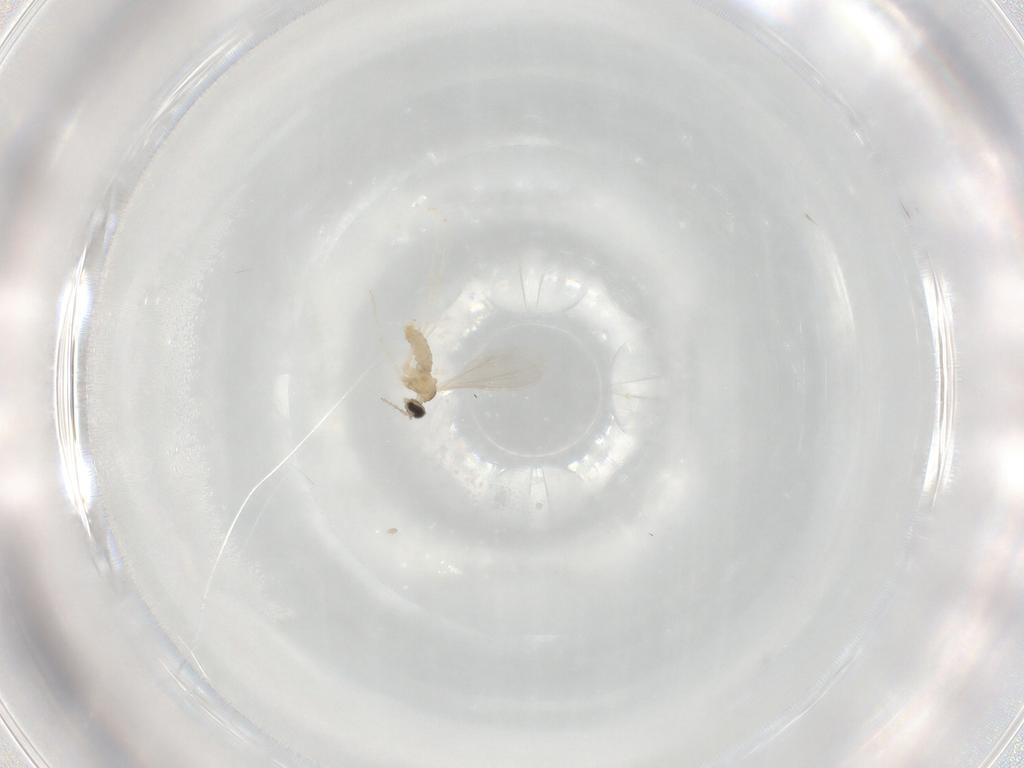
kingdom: Animalia
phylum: Arthropoda
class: Insecta
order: Diptera
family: Cecidomyiidae
